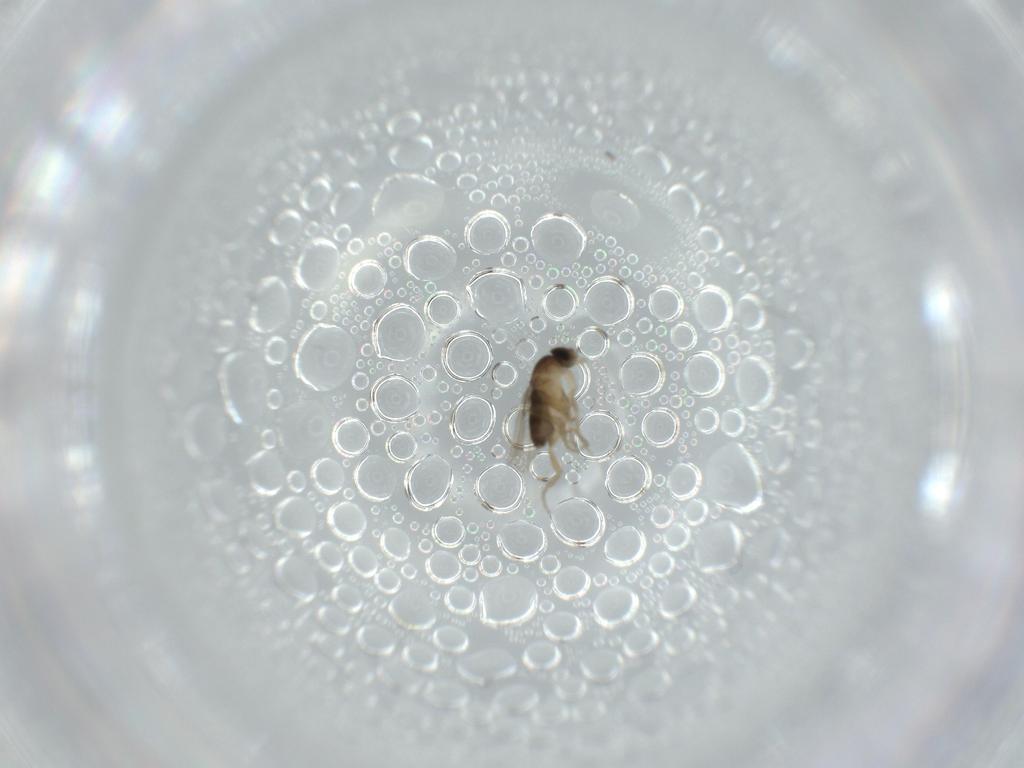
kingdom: Animalia
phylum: Arthropoda
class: Insecta
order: Diptera
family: Phoridae
